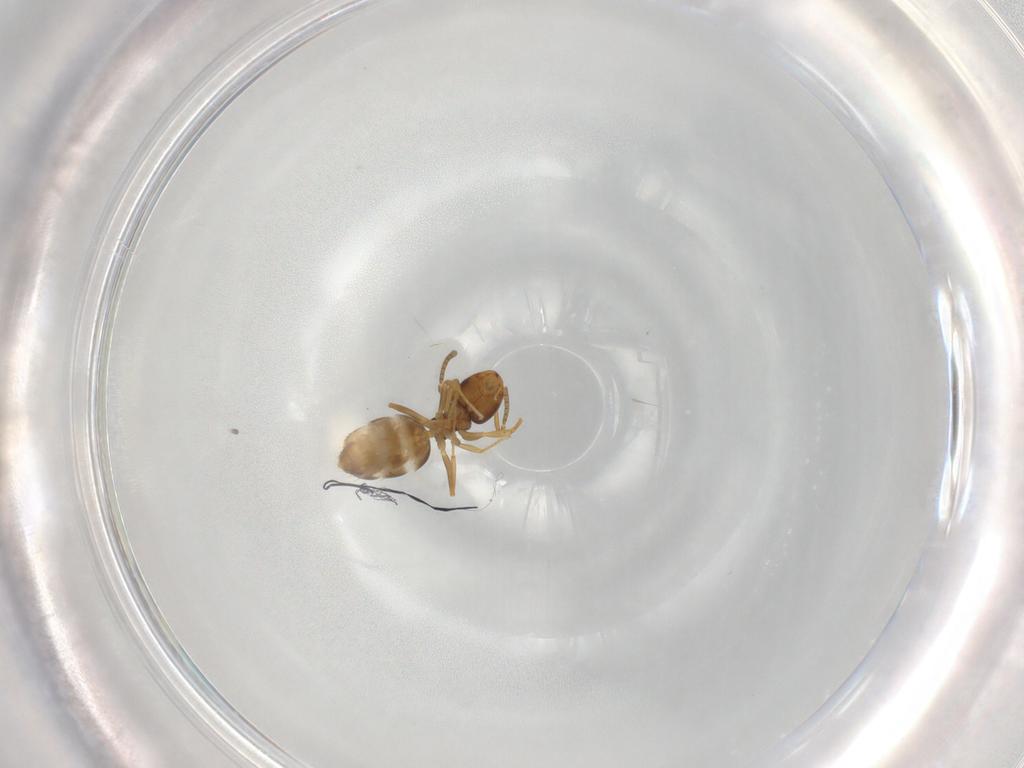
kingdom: Animalia
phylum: Arthropoda
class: Insecta
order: Hymenoptera
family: Formicidae
